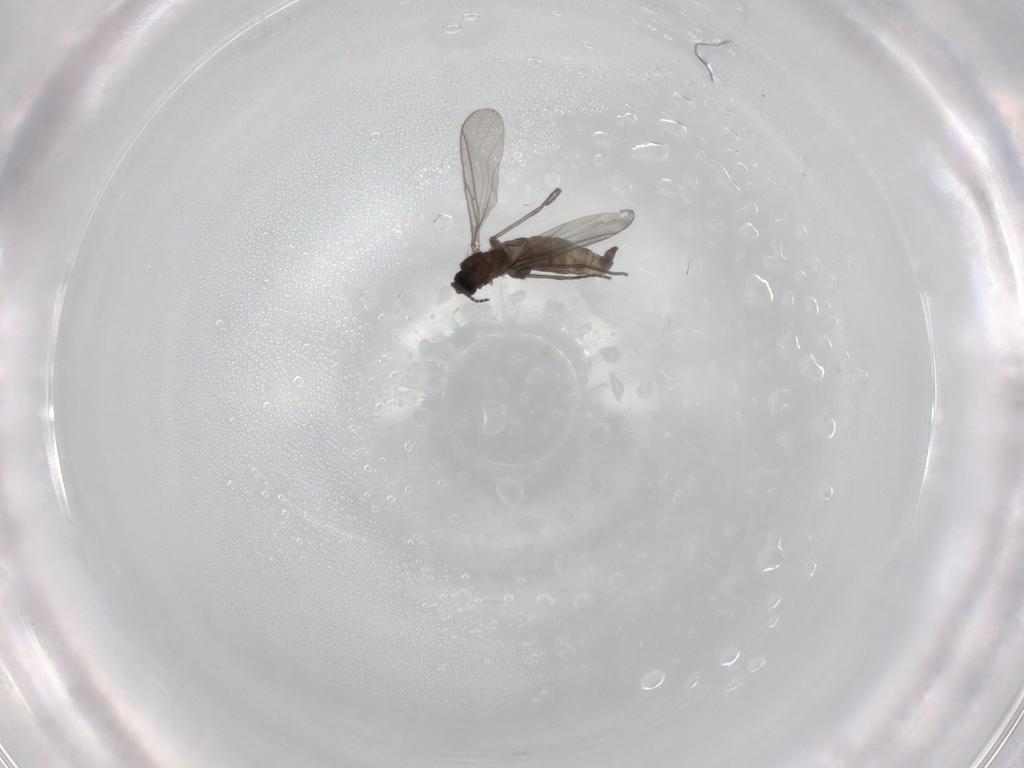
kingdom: Animalia
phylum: Arthropoda
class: Insecta
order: Diptera
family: Sciaridae
